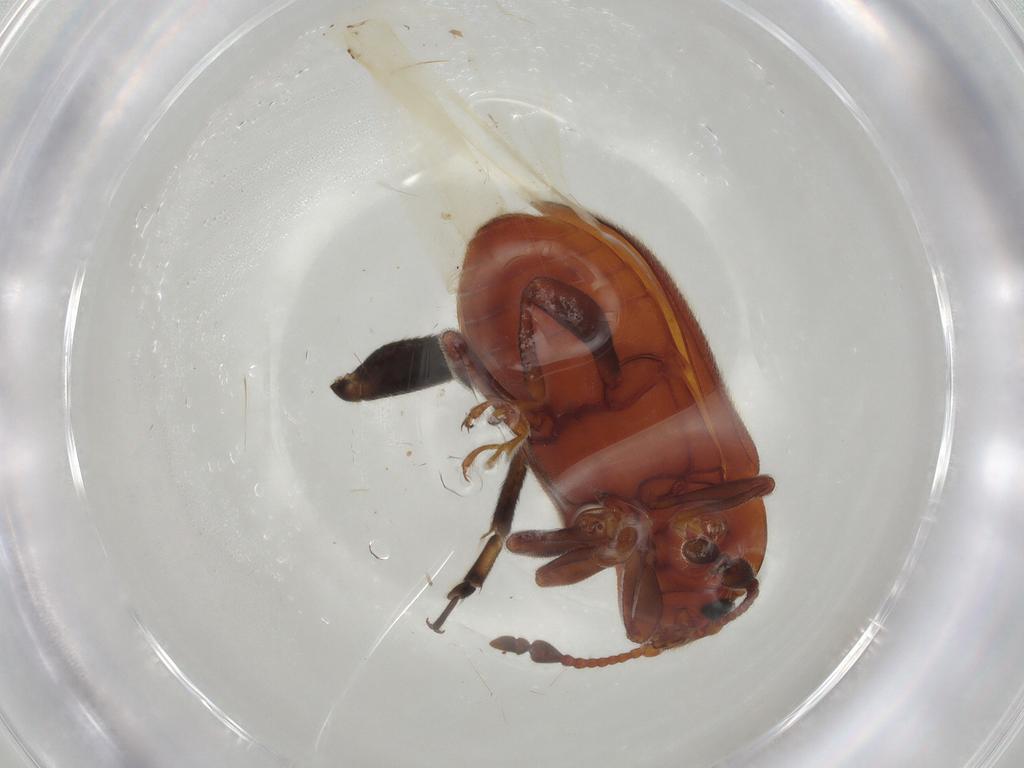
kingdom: Animalia
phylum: Arthropoda
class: Insecta
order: Coleoptera
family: Endomychidae
